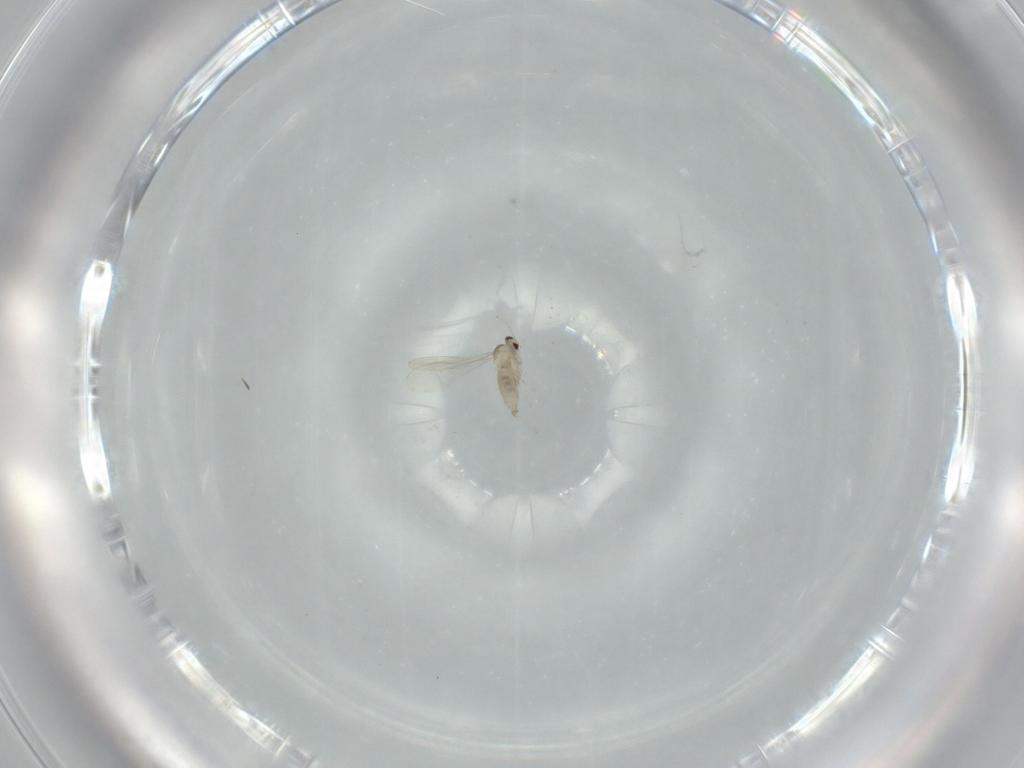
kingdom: Animalia
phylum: Arthropoda
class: Insecta
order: Diptera
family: Cecidomyiidae
